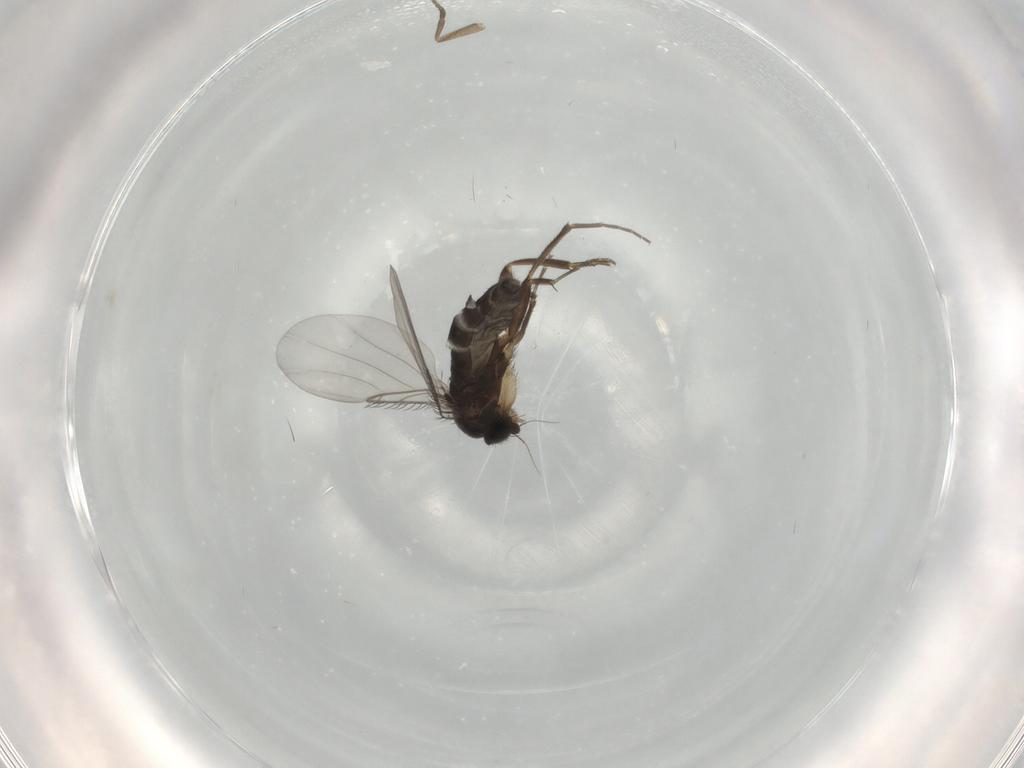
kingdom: Animalia
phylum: Arthropoda
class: Insecta
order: Diptera
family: Phoridae
